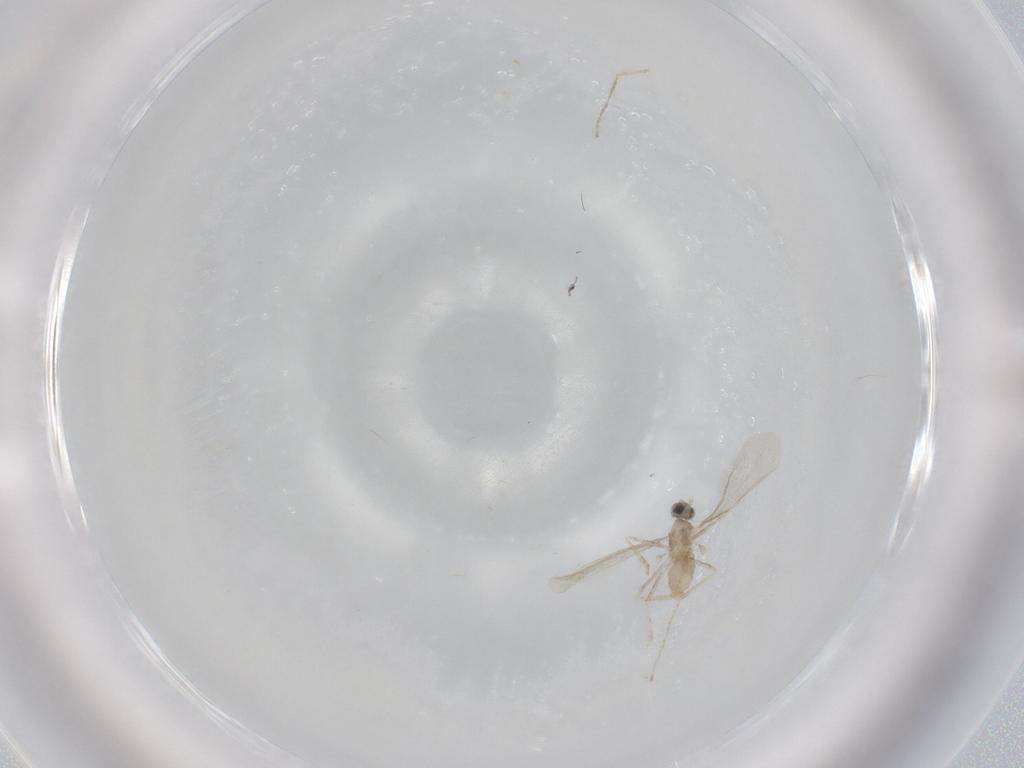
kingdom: Animalia
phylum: Arthropoda
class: Insecta
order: Diptera
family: Cecidomyiidae
